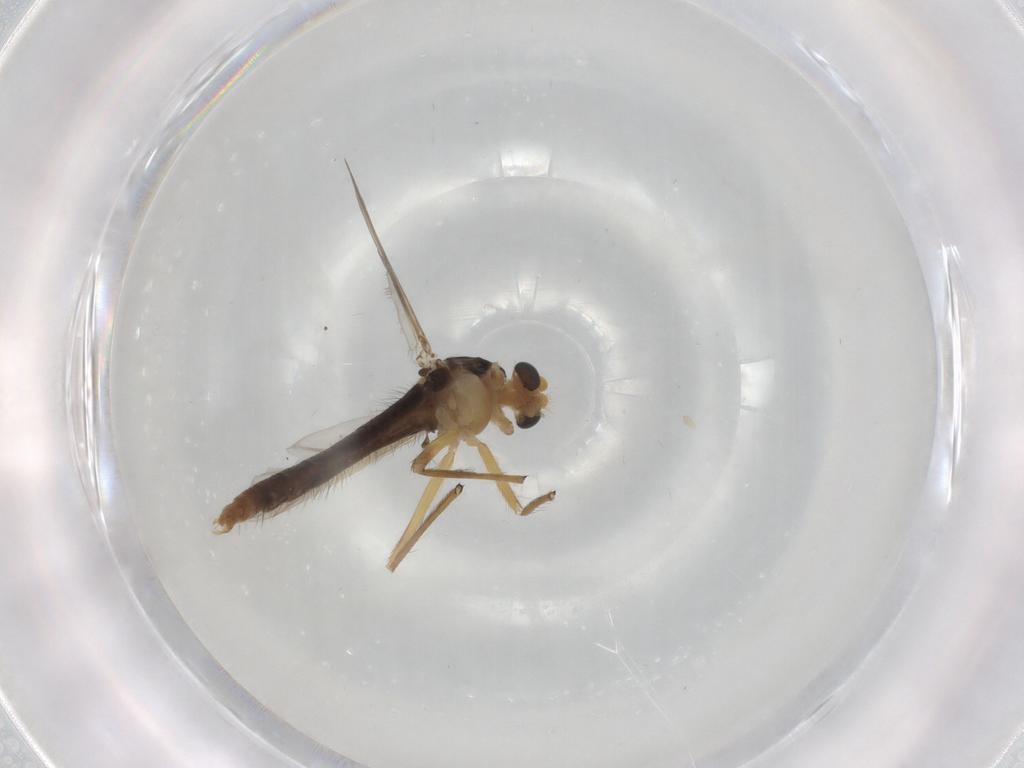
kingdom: Animalia
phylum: Arthropoda
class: Insecta
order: Diptera
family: Chironomidae
